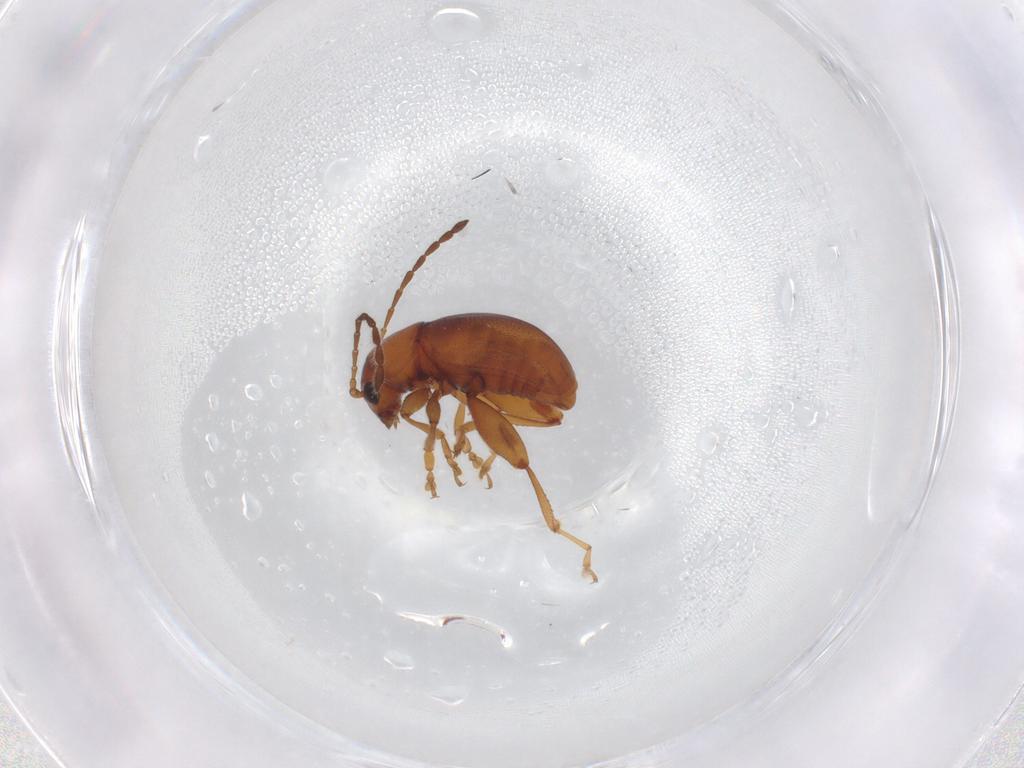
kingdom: Animalia
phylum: Arthropoda
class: Insecta
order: Coleoptera
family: Chrysomelidae
